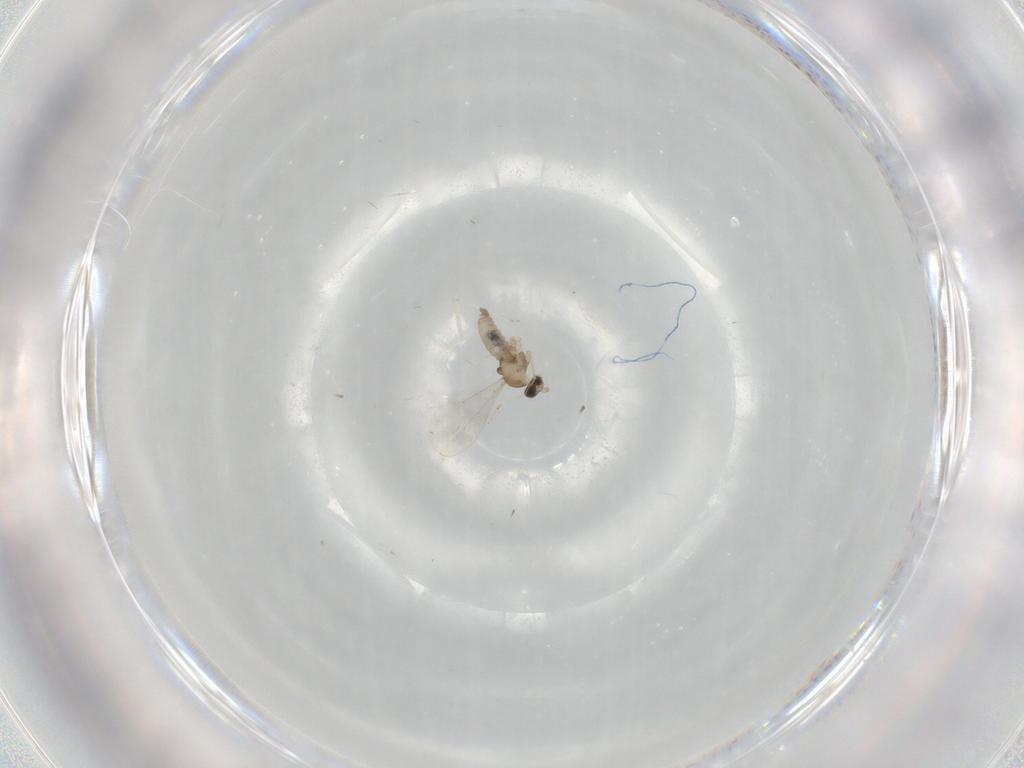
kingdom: Animalia
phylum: Arthropoda
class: Insecta
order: Diptera
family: Cecidomyiidae
